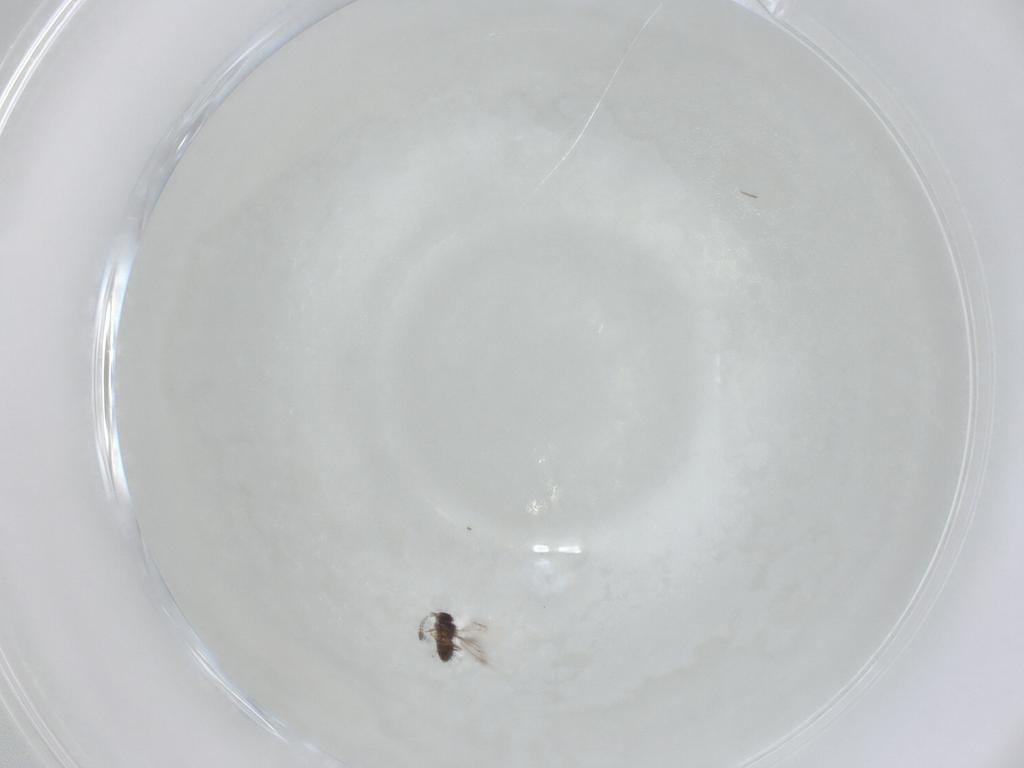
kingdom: Animalia
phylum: Arthropoda
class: Insecta
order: Hymenoptera
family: Mymaridae
